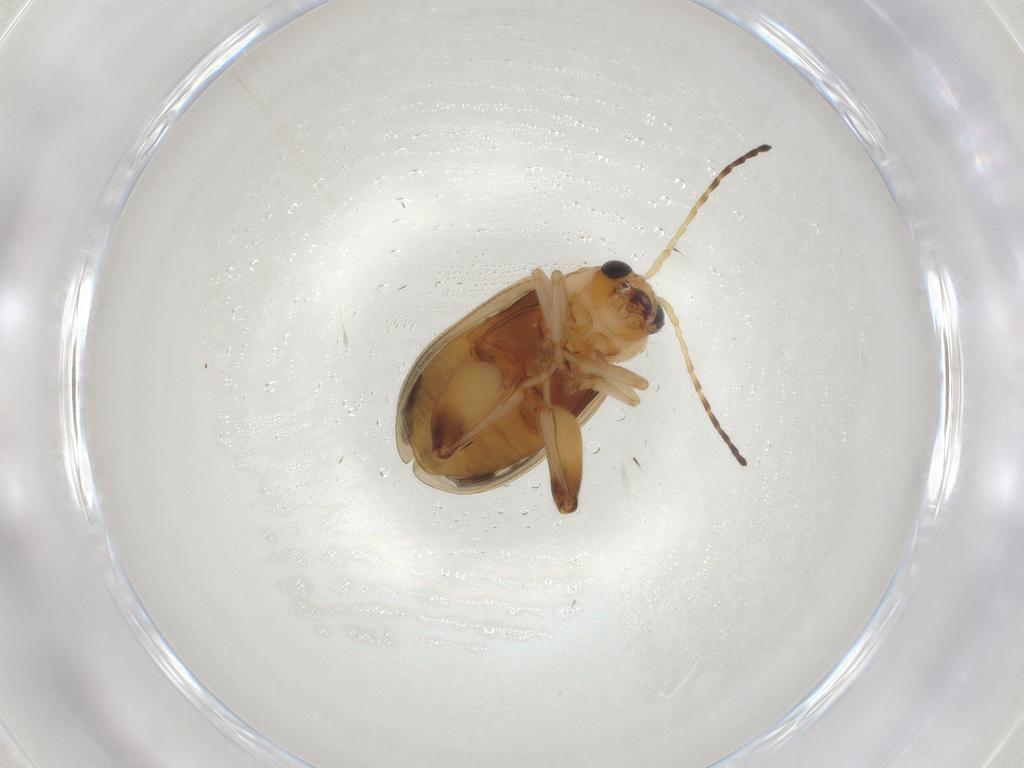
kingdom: Animalia
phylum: Arthropoda
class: Insecta
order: Coleoptera
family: Chrysomelidae
